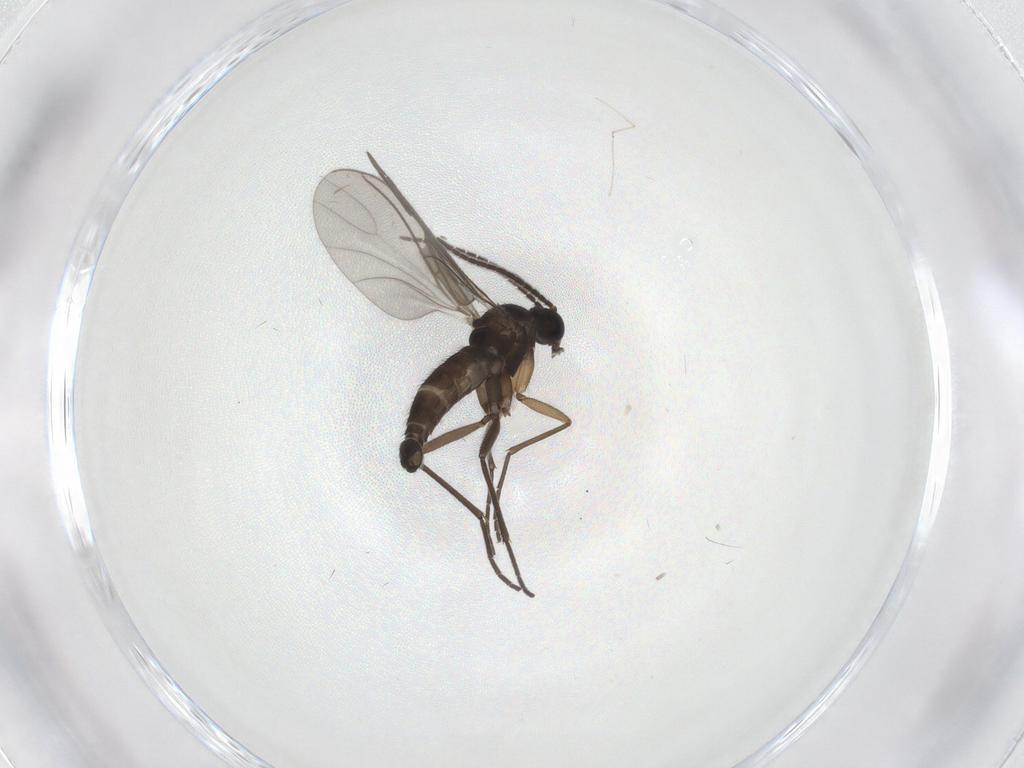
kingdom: Animalia
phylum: Arthropoda
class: Insecta
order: Diptera
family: Sciaridae
